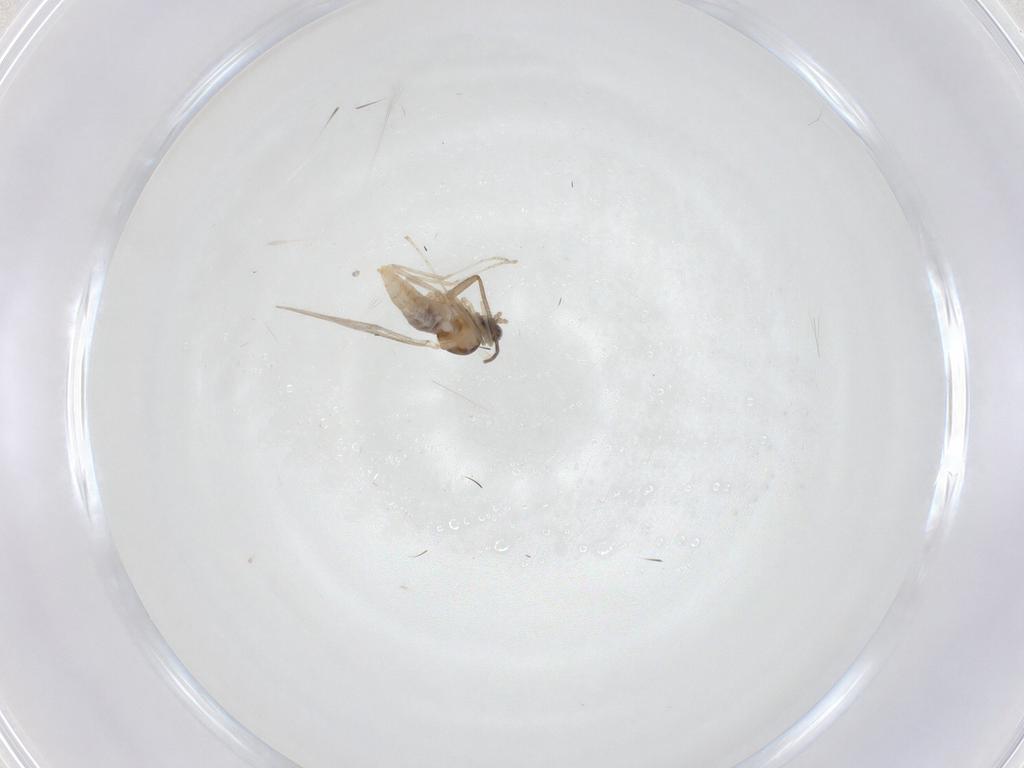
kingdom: Animalia
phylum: Arthropoda
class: Insecta
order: Diptera
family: Cecidomyiidae
